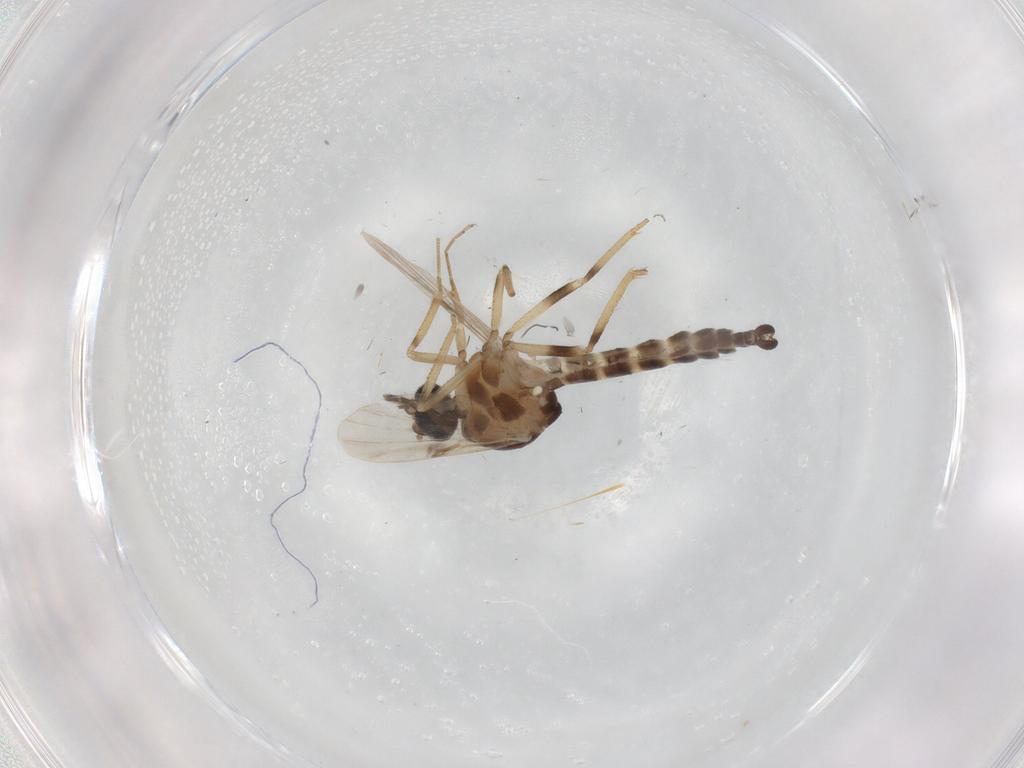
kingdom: Animalia
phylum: Arthropoda
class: Insecta
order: Diptera
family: Ceratopogonidae
